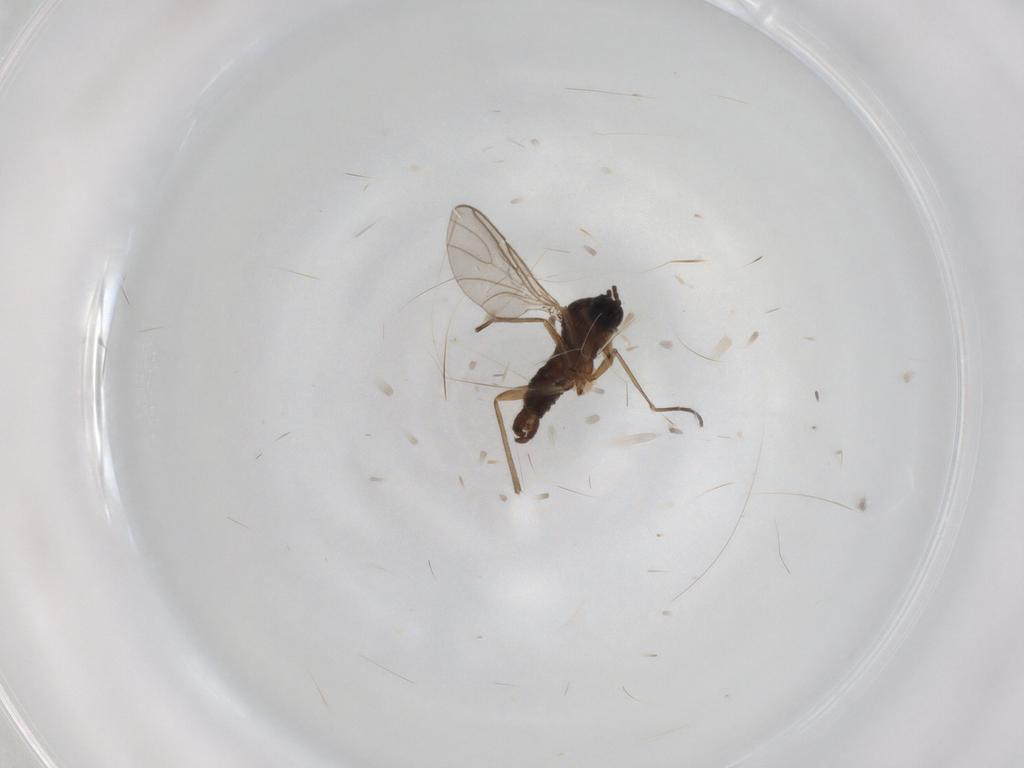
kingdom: Animalia
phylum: Arthropoda
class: Insecta
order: Diptera
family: Sciaridae
